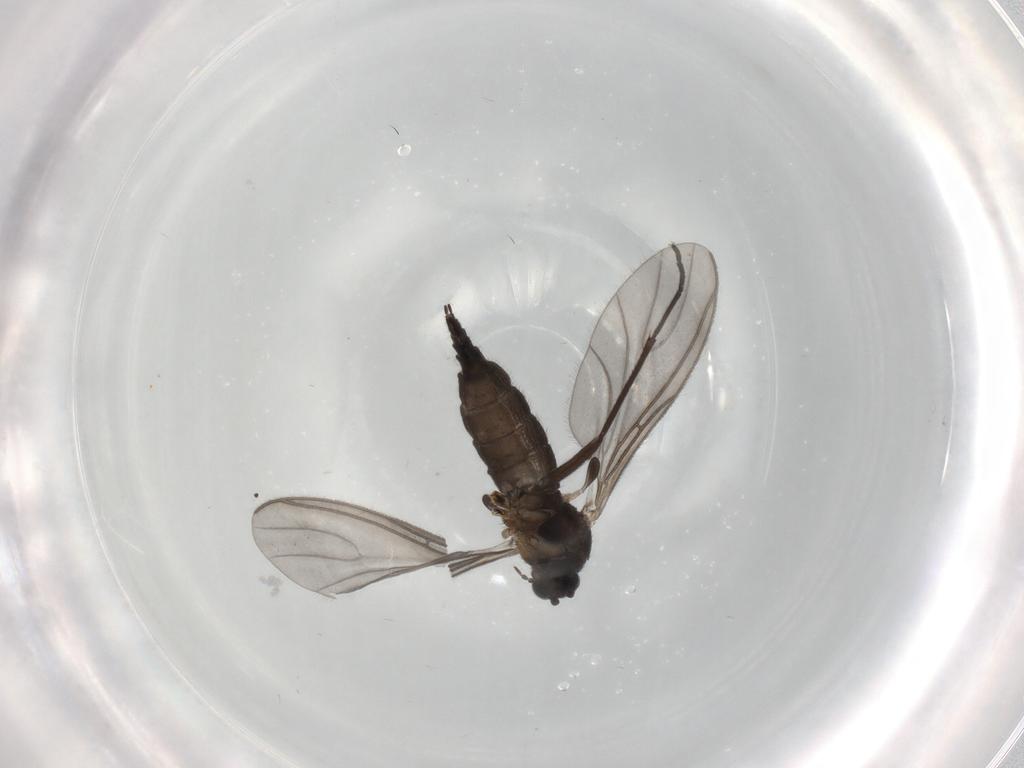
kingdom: Animalia
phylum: Arthropoda
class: Insecta
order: Diptera
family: Sciaridae
